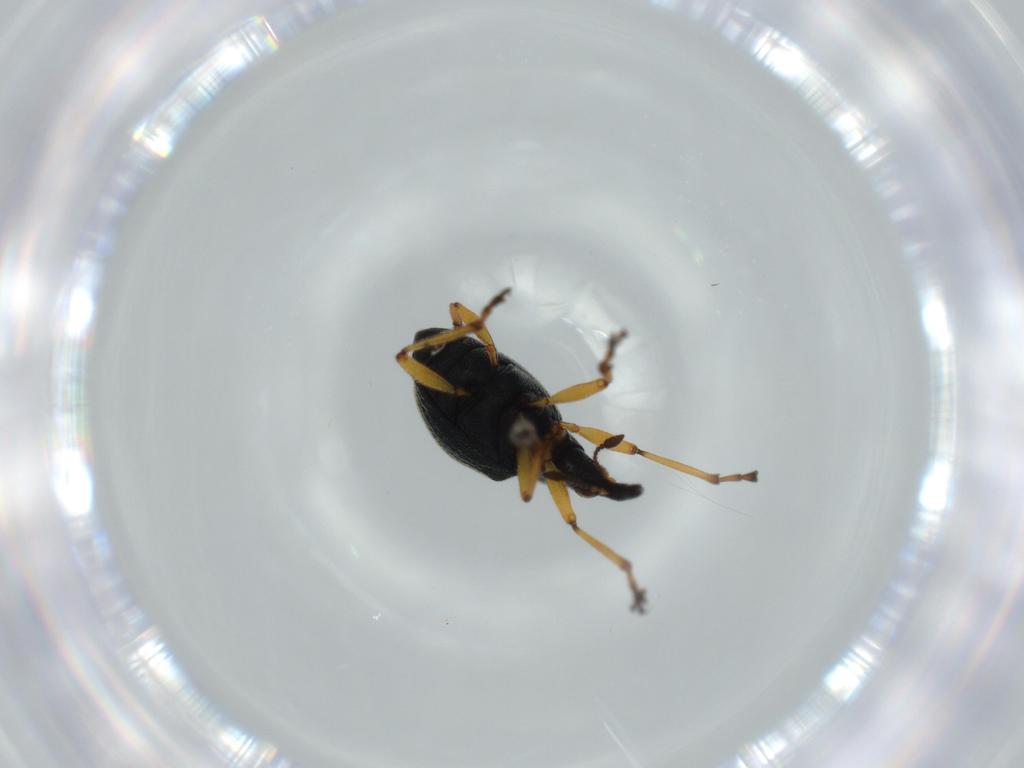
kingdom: Animalia
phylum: Arthropoda
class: Insecta
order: Coleoptera
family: Brentidae
